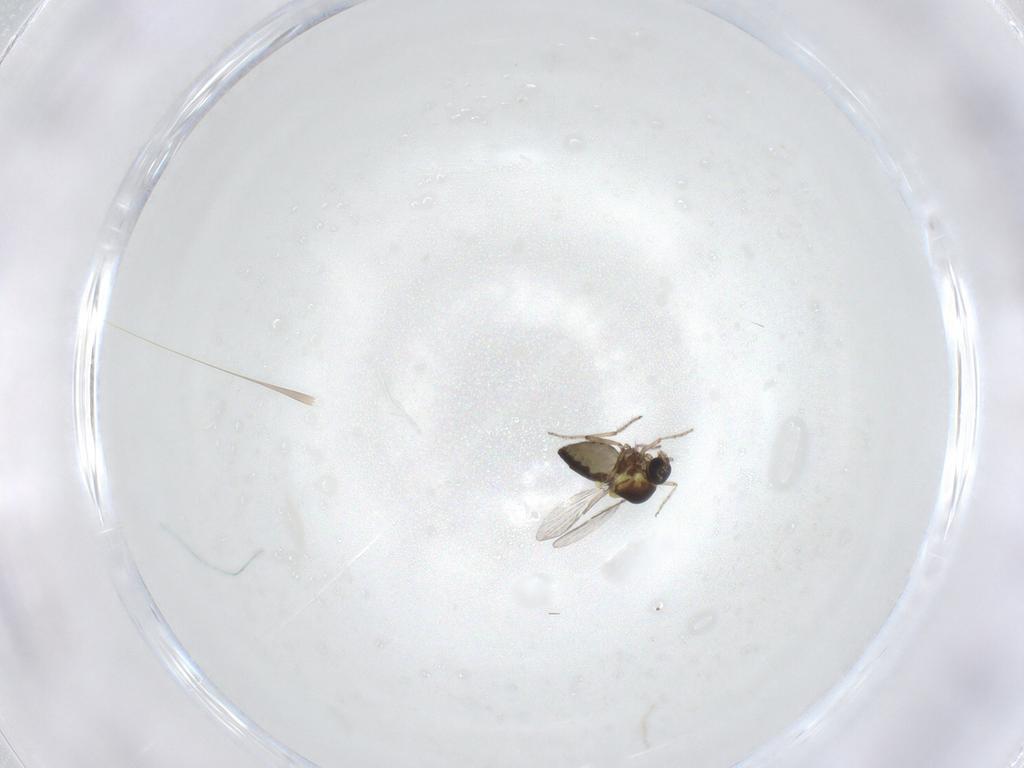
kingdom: Animalia
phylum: Arthropoda
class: Insecta
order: Diptera
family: Ceratopogonidae
